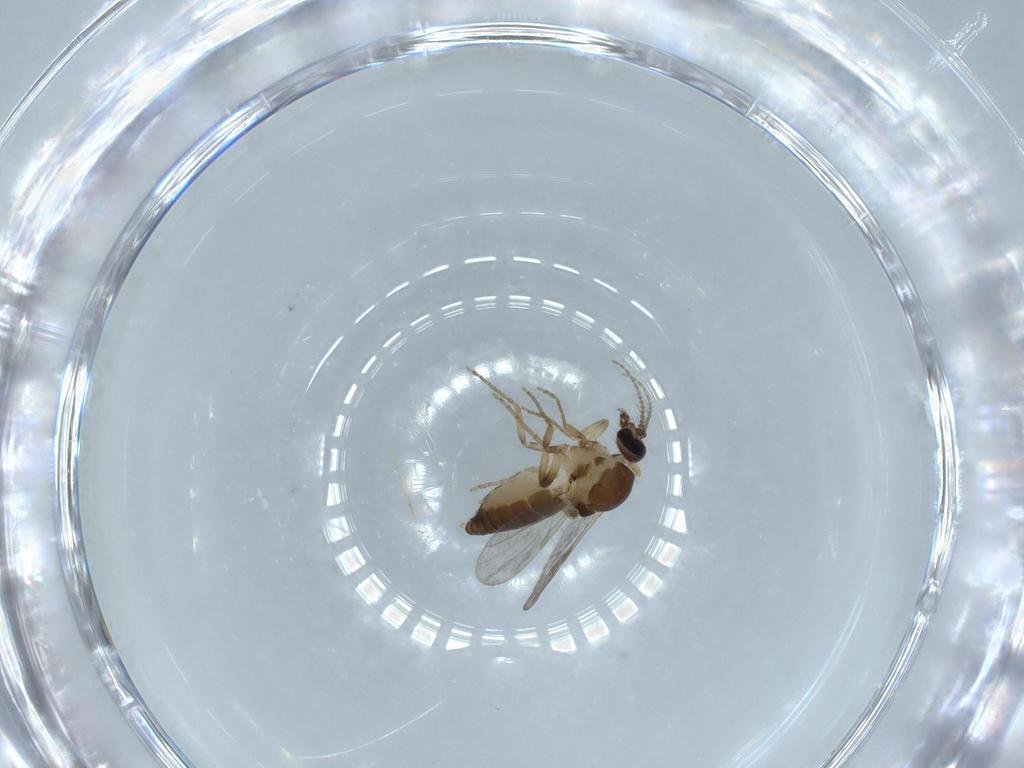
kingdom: Animalia
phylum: Arthropoda
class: Insecta
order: Diptera
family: Ceratopogonidae
